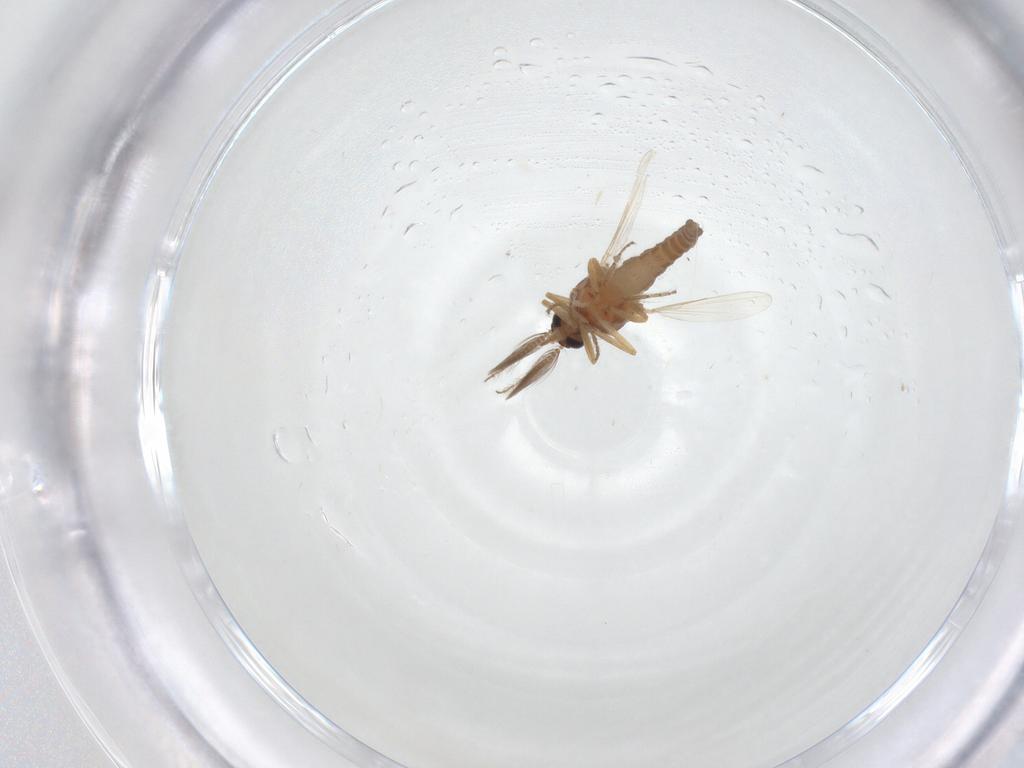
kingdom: Animalia
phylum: Arthropoda
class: Insecta
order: Diptera
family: Ceratopogonidae
